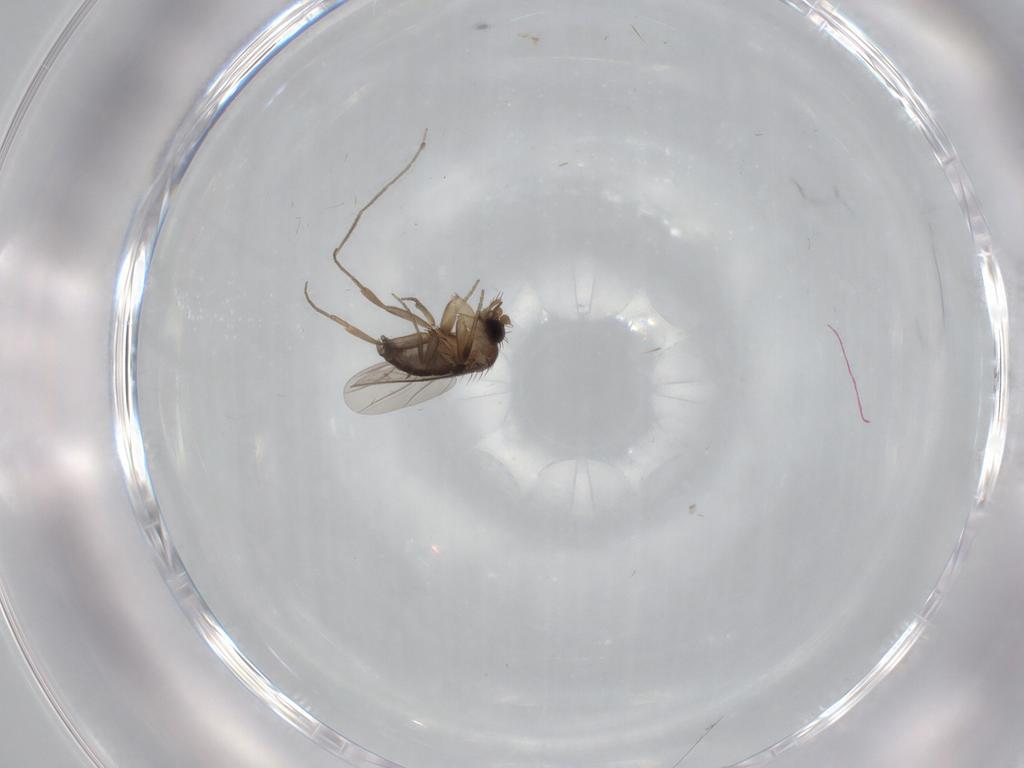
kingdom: Animalia
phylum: Arthropoda
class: Insecta
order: Diptera
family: Phoridae
